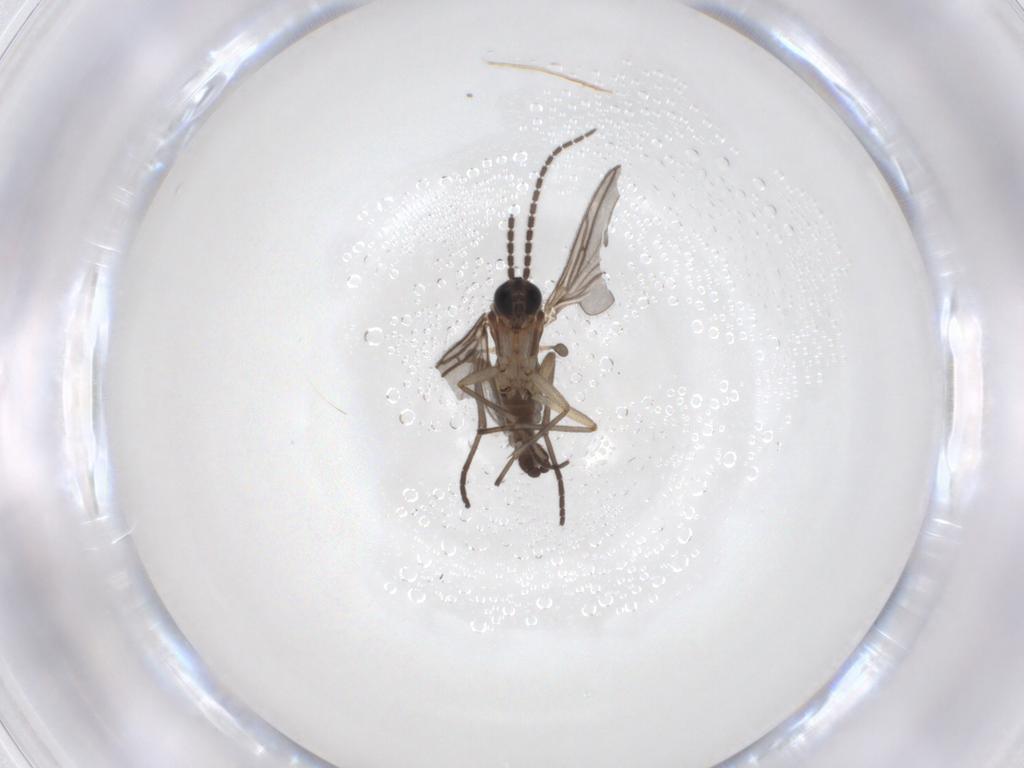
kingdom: Animalia
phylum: Arthropoda
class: Insecta
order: Diptera
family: Sciaridae
